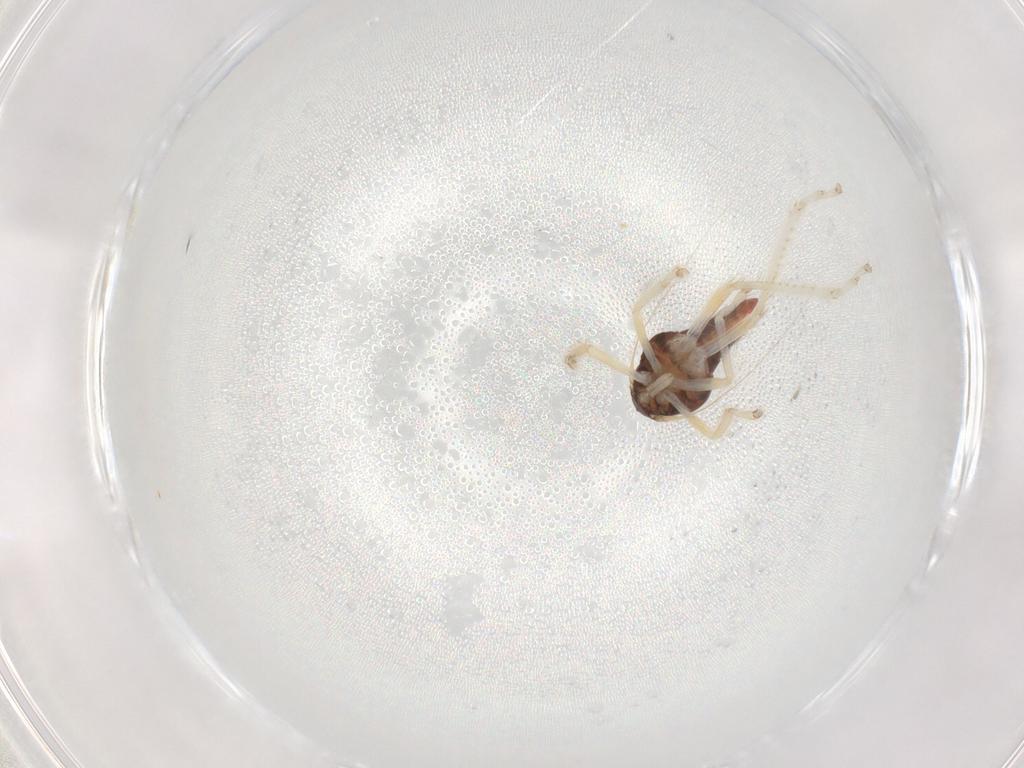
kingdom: Animalia
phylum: Arthropoda
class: Insecta
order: Hemiptera
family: Cicadellidae
